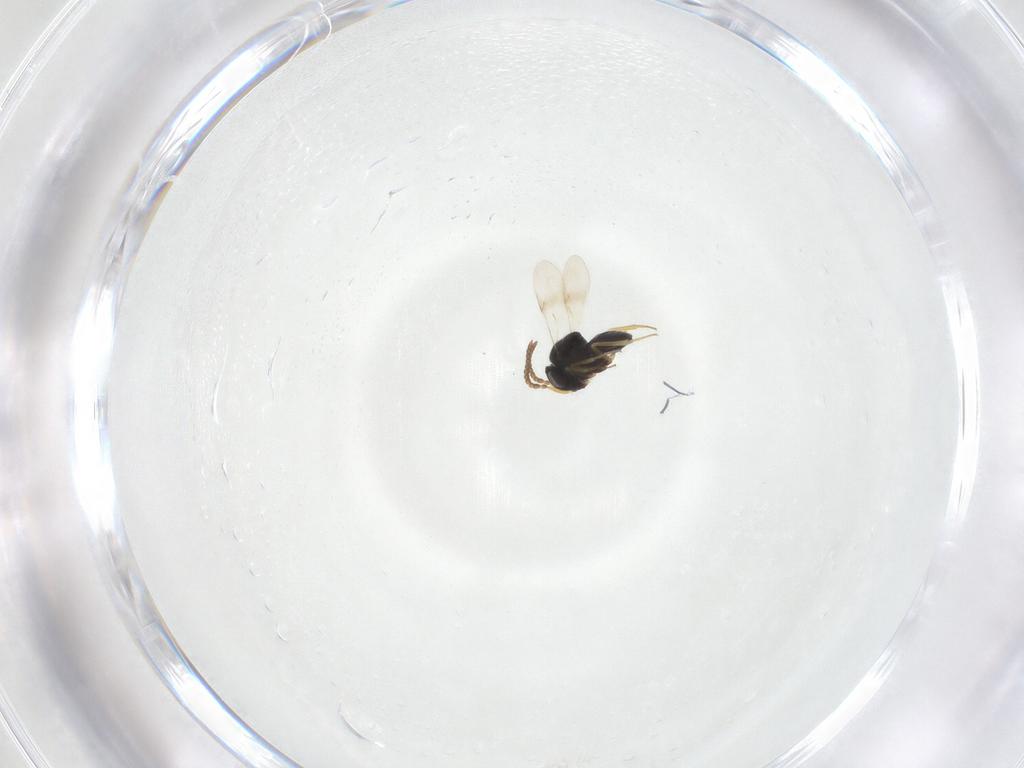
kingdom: Animalia
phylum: Arthropoda
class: Insecta
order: Hymenoptera
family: Scelionidae
